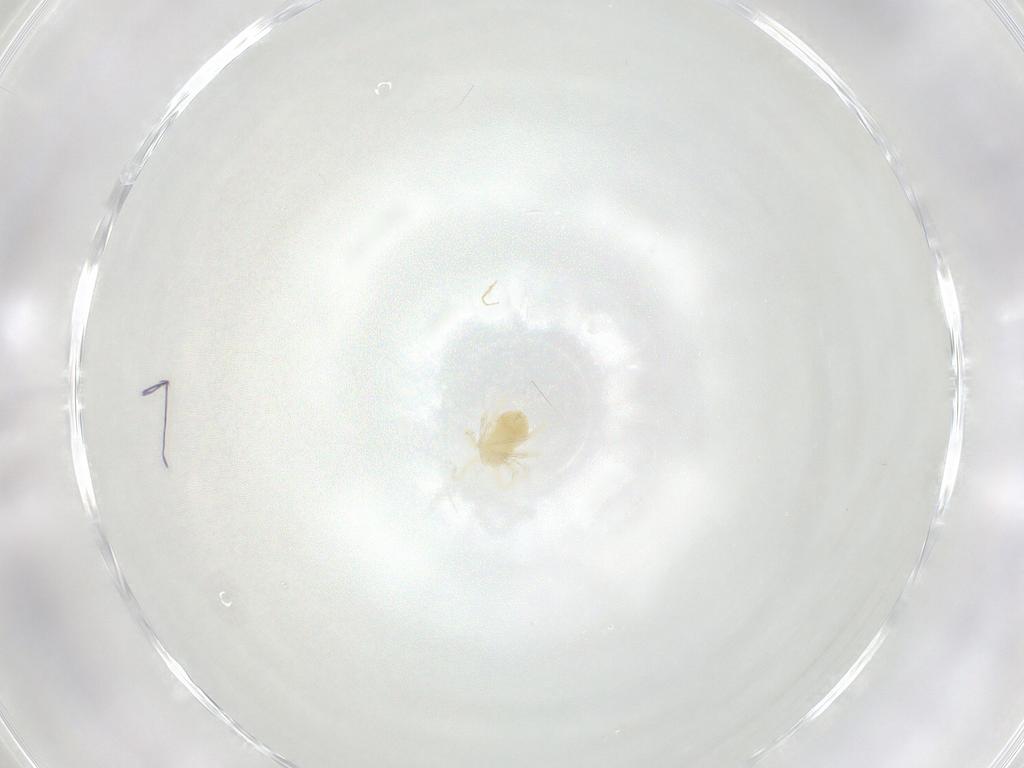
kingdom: Animalia
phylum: Arthropoda
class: Arachnida
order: Trombidiformes
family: Anystidae
